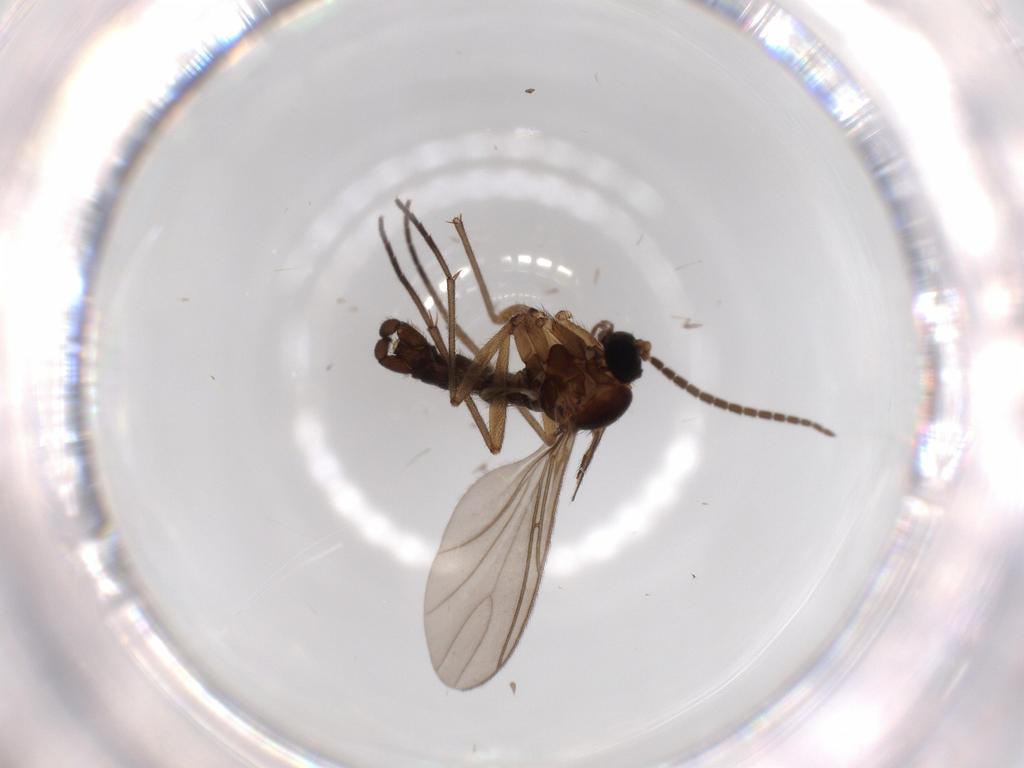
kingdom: Animalia
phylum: Arthropoda
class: Insecta
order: Diptera
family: Sciaridae
